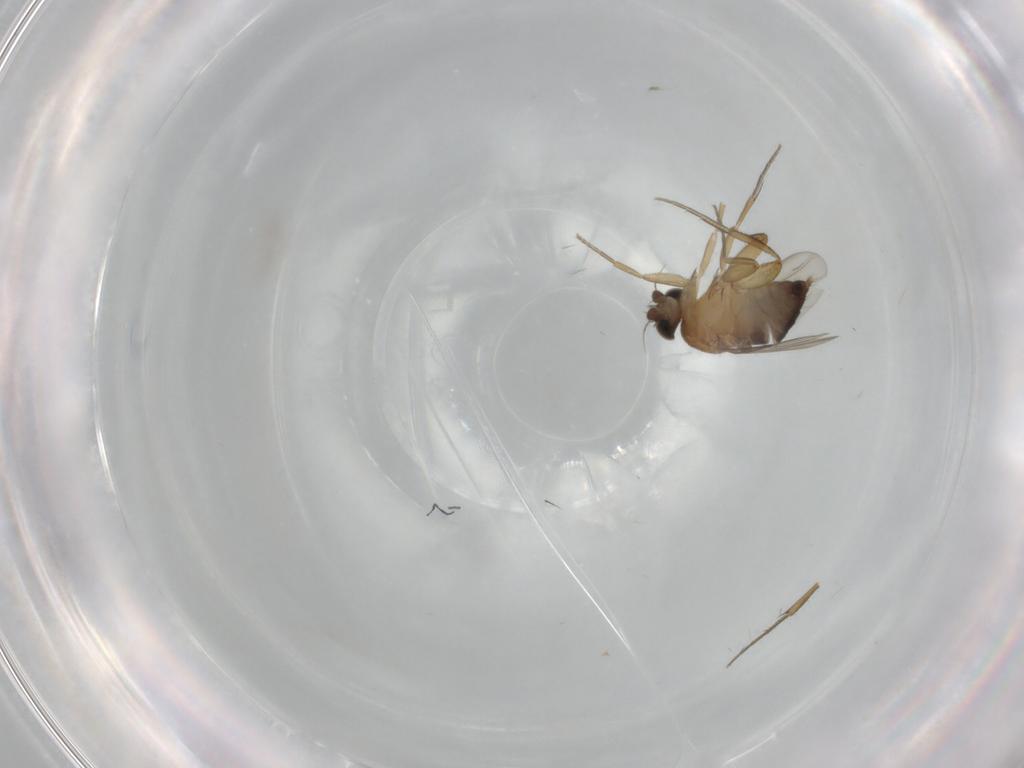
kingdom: Animalia
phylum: Arthropoda
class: Insecta
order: Diptera
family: Phoridae
